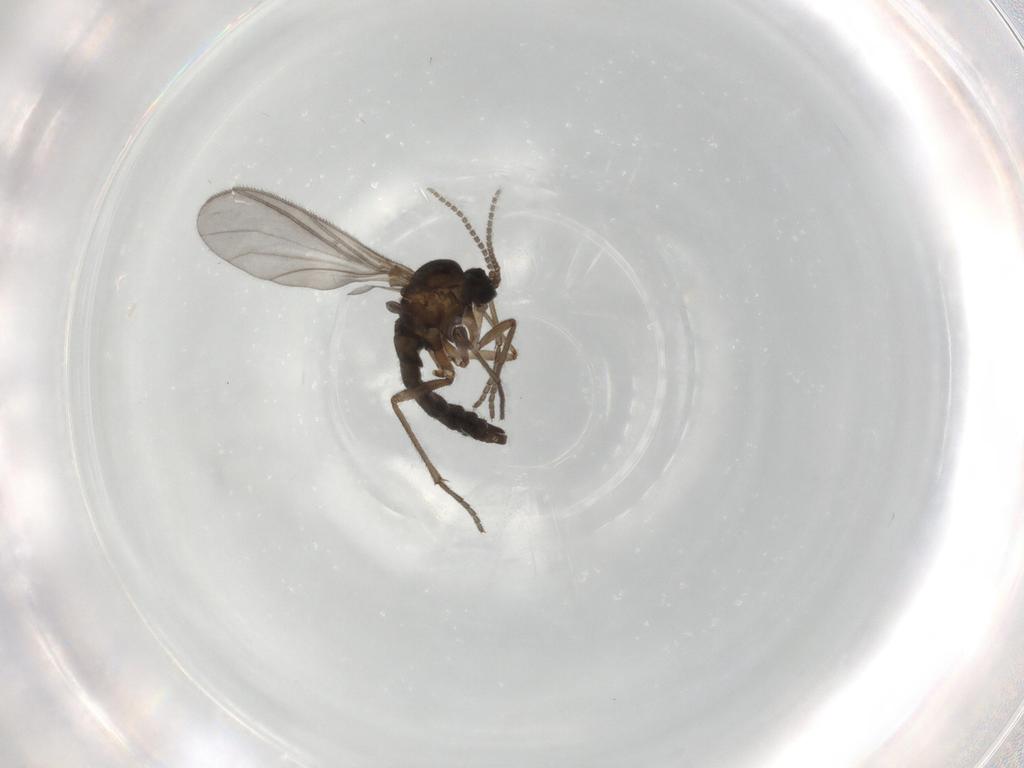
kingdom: Animalia
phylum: Arthropoda
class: Insecta
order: Diptera
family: Sciaridae
